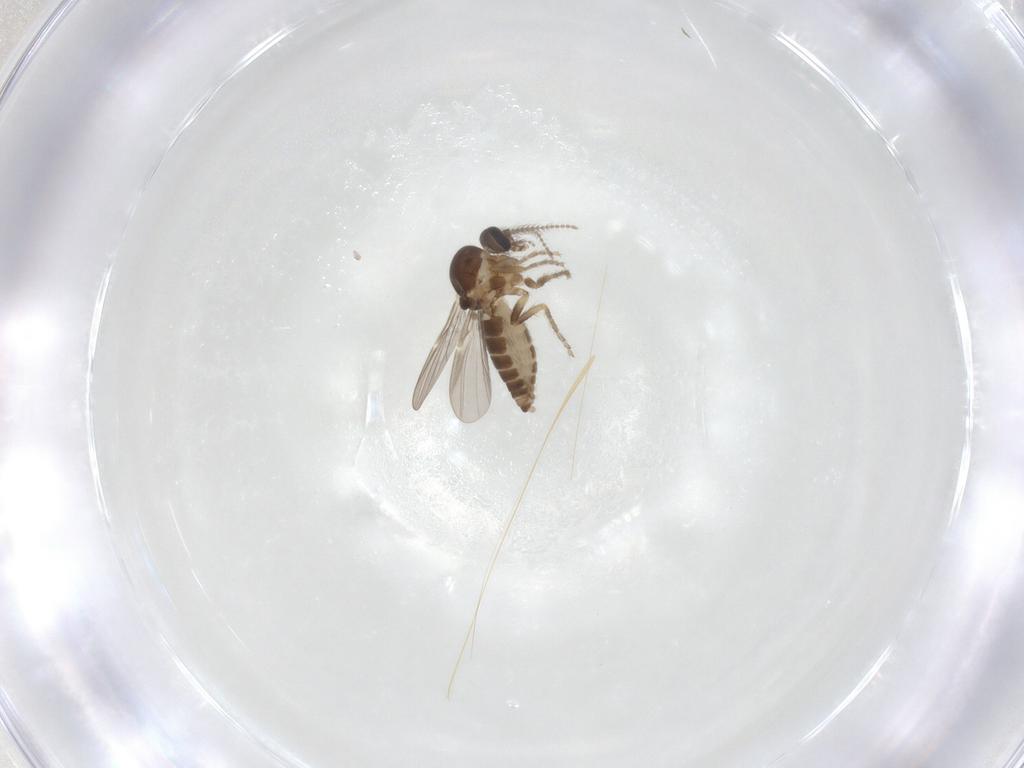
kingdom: Animalia
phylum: Arthropoda
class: Insecta
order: Diptera
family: Ceratopogonidae
